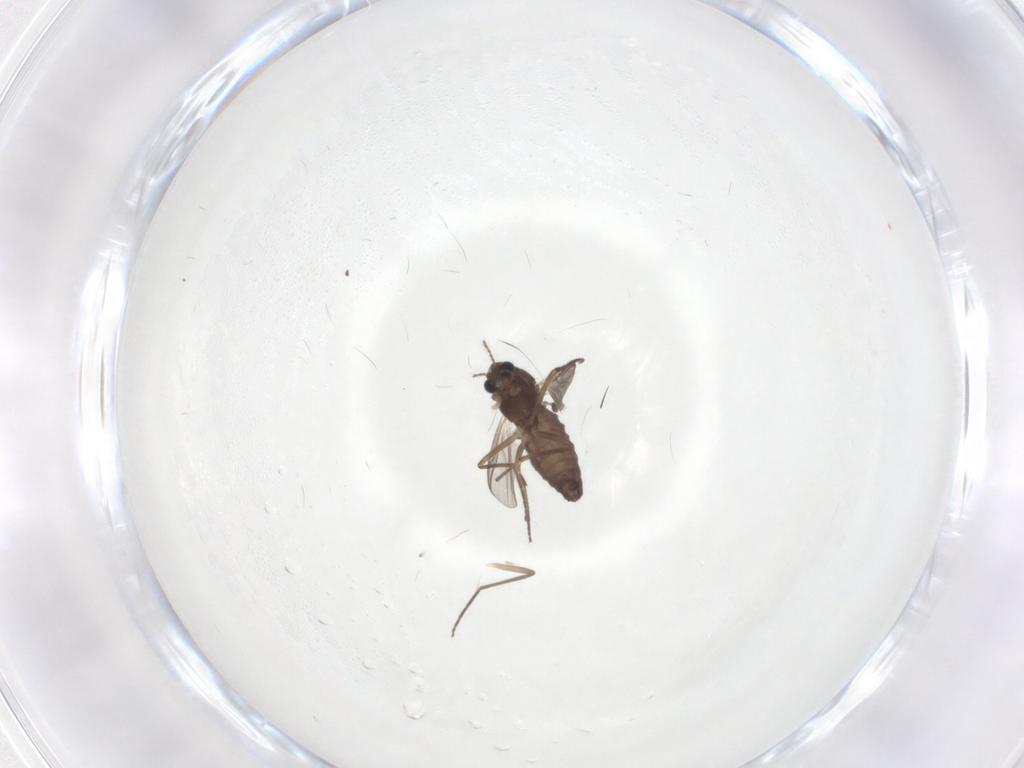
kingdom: Animalia
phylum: Arthropoda
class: Insecta
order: Diptera
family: Chironomidae
